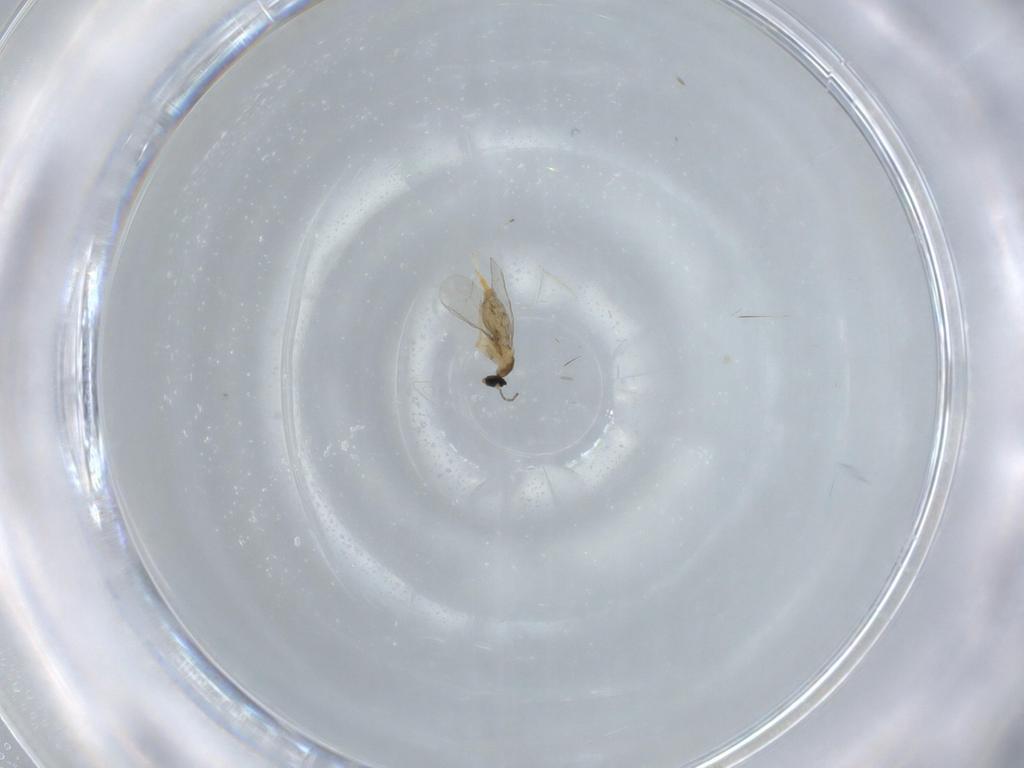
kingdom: Animalia
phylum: Arthropoda
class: Insecta
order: Diptera
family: Cecidomyiidae
